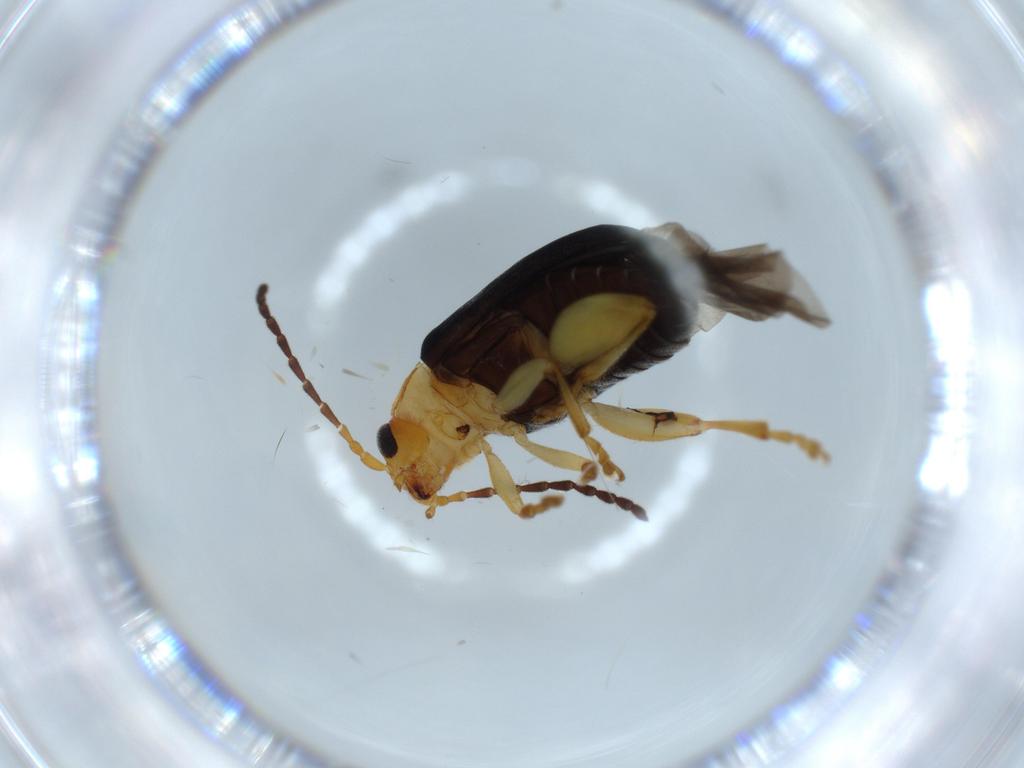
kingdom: Animalia
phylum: Arthropoda
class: Insecta
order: Coleoptera
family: Chrysomelidae
